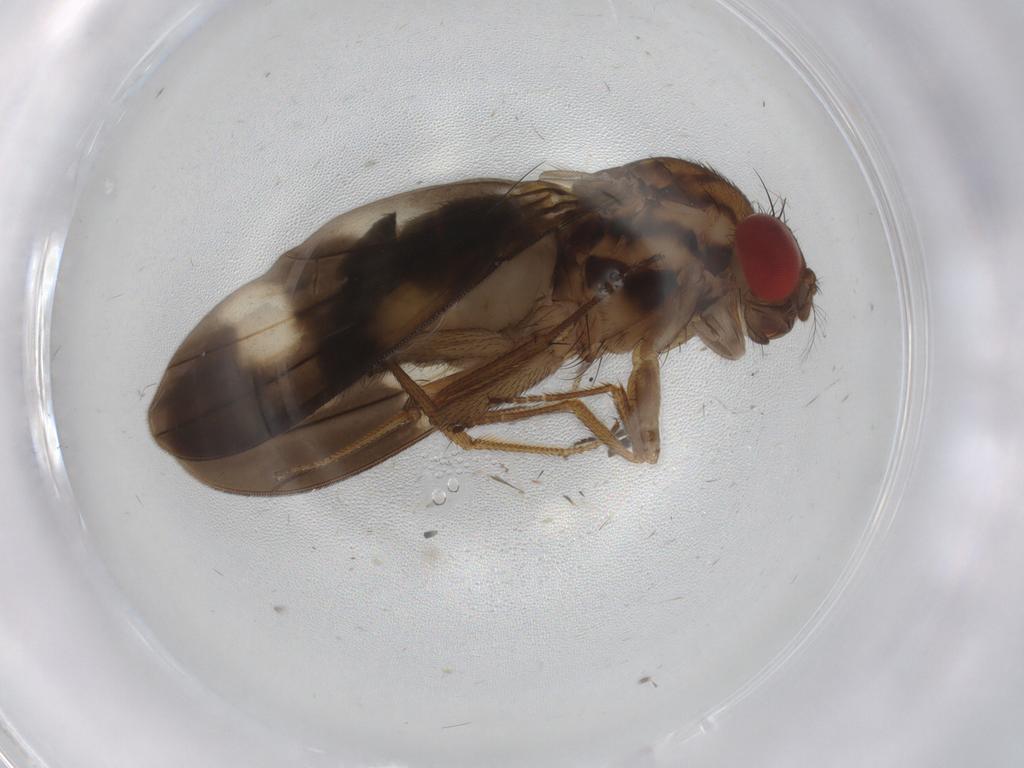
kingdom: Animalia
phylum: Arthropoda
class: Insecta
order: Diptera
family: Drosophilidae
